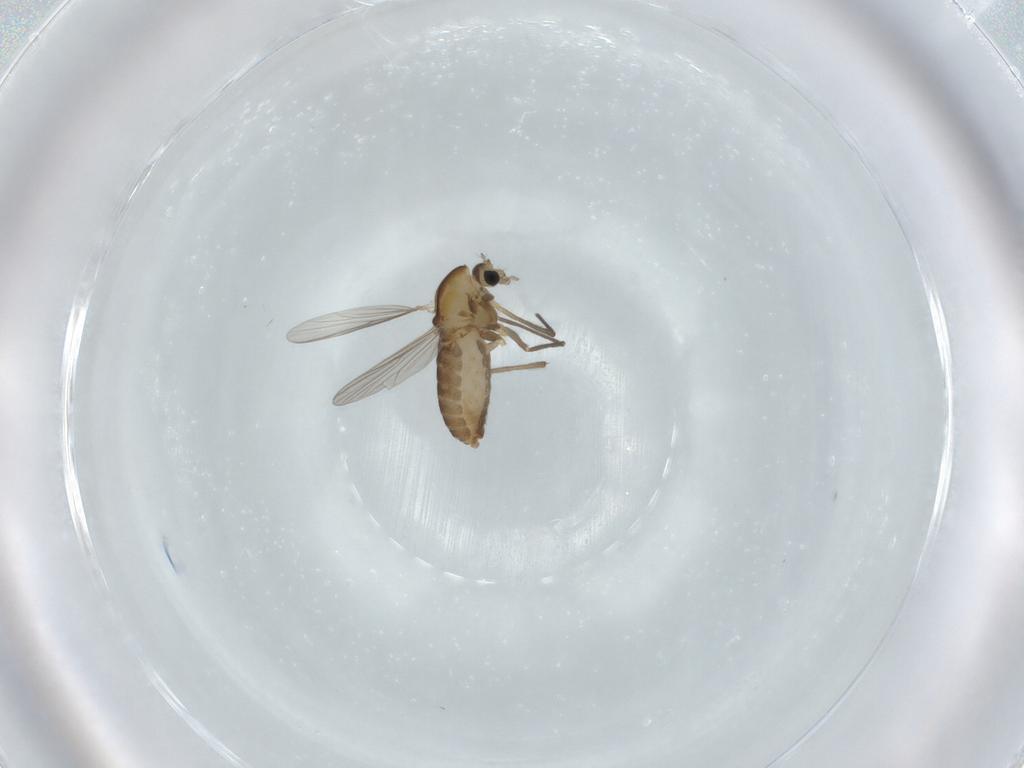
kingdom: Animalia
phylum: Arthropoda
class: Insecta
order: Diptera
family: Chironomidae
